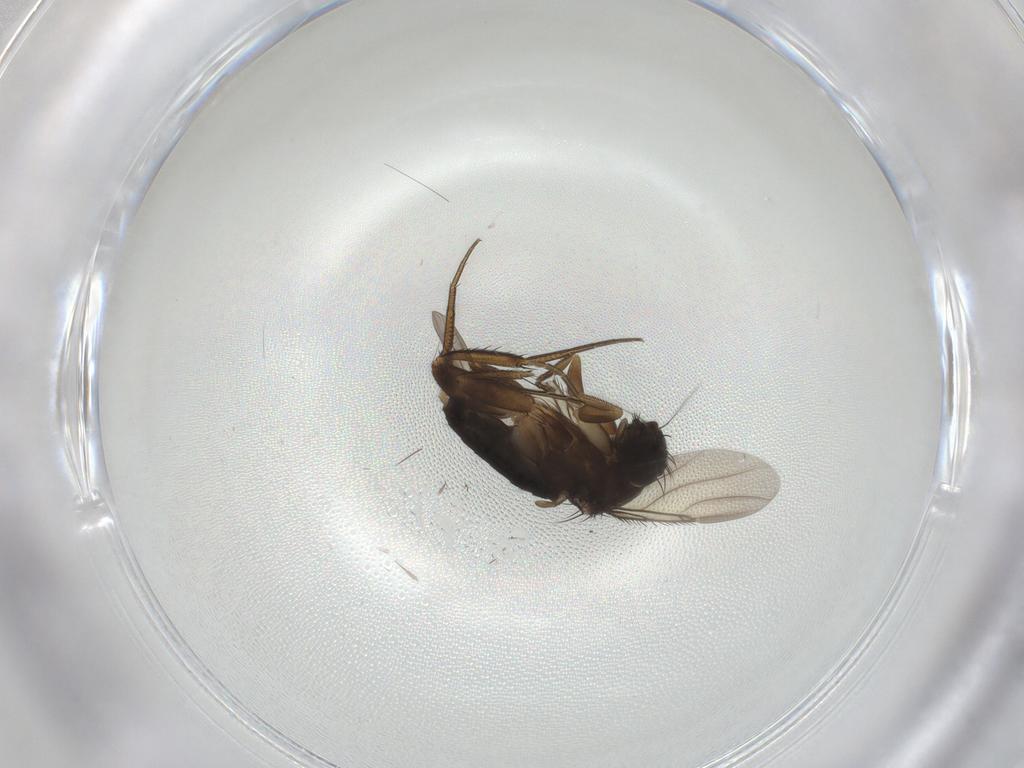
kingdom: Animalia
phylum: Arthropoda
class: Insecta
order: Diptera
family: Phoridae
